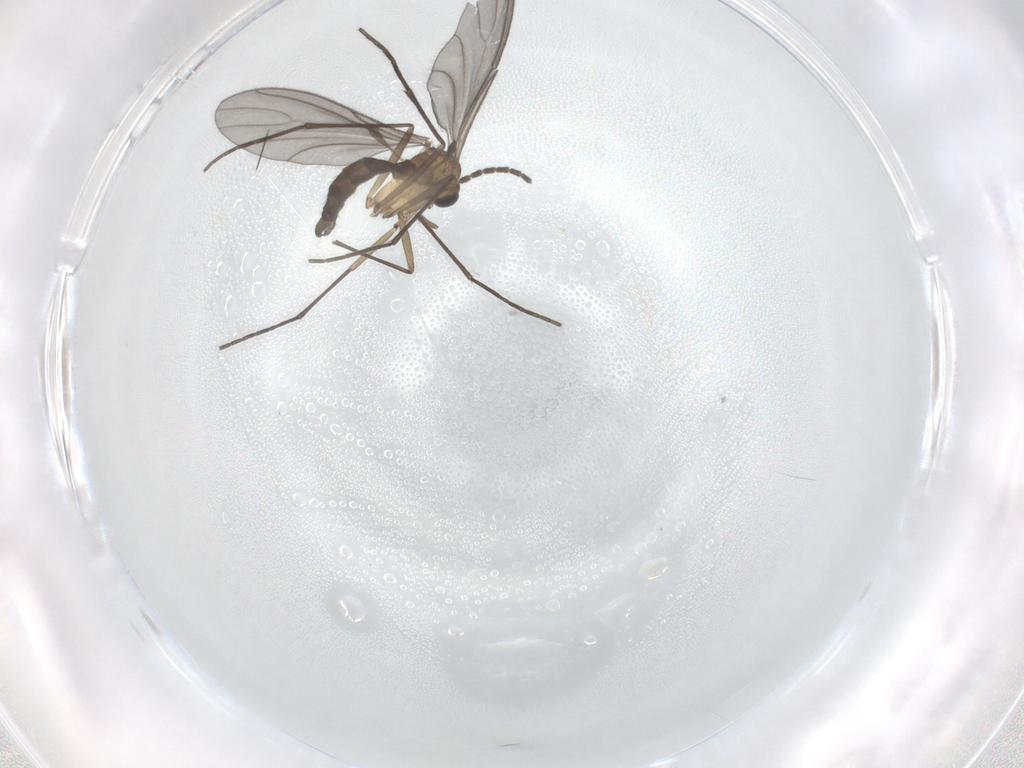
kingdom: Animalia
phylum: Arthropoda
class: Insecta
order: Diptera
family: Sciaridae
